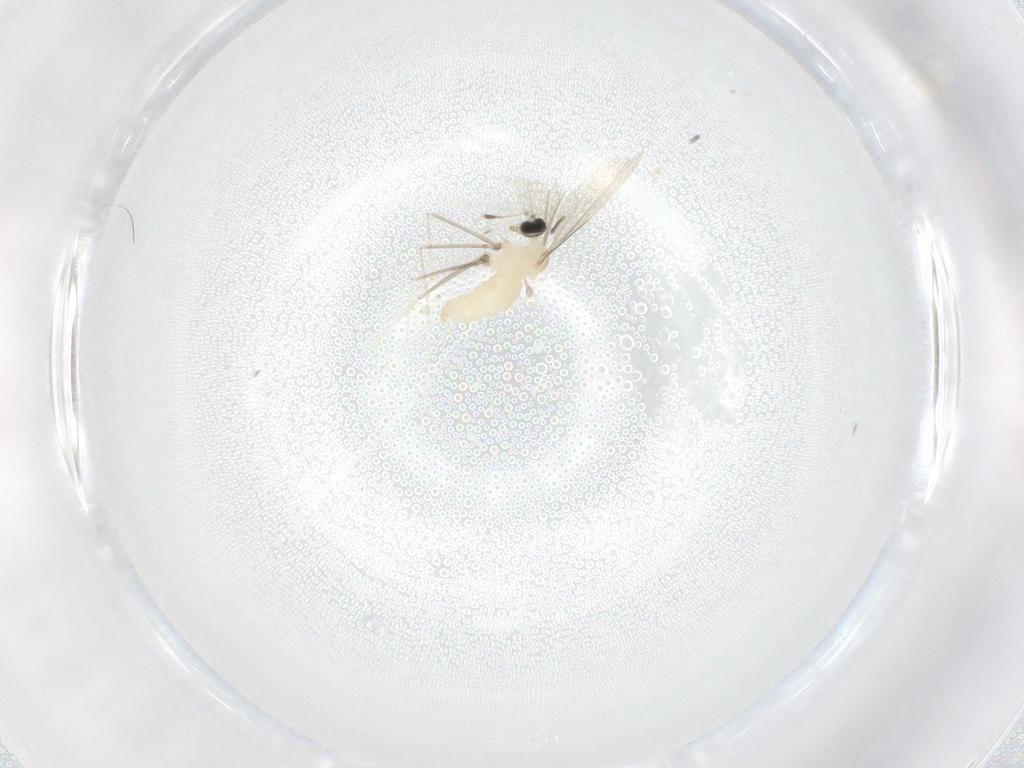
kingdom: Animalia
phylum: Arthropoda
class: Insecta
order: Diptera
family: Cecidomyiidae
